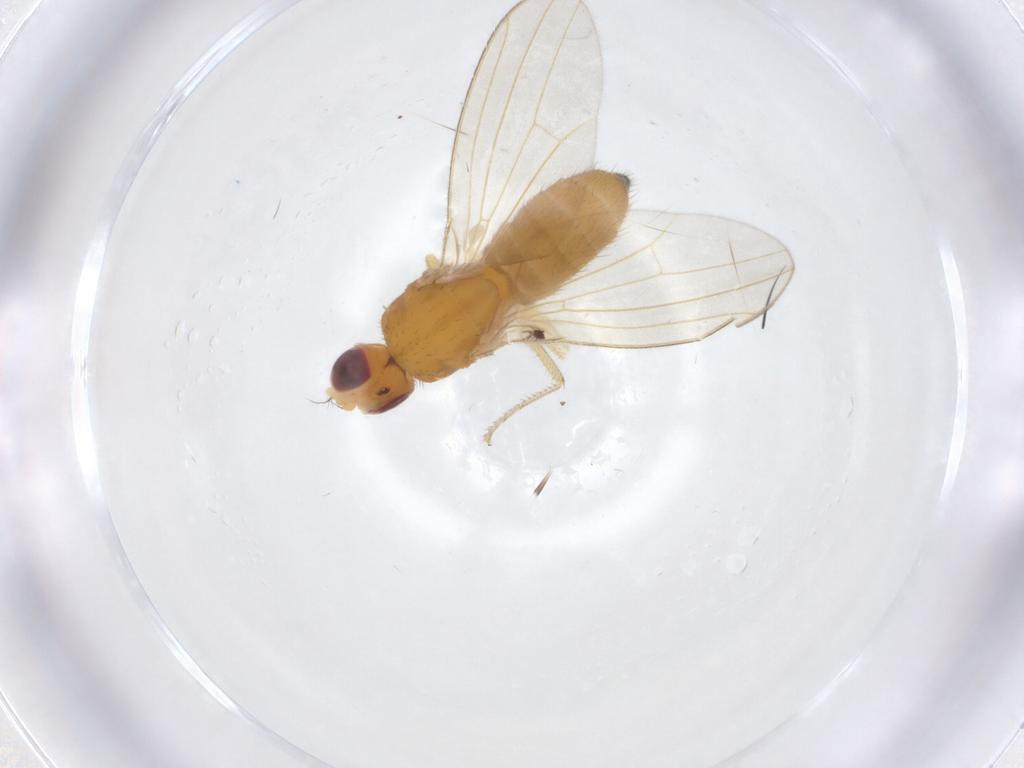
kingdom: Animalia
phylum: Arthropoda
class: Insecta
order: Diptera
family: Drosophilidae
